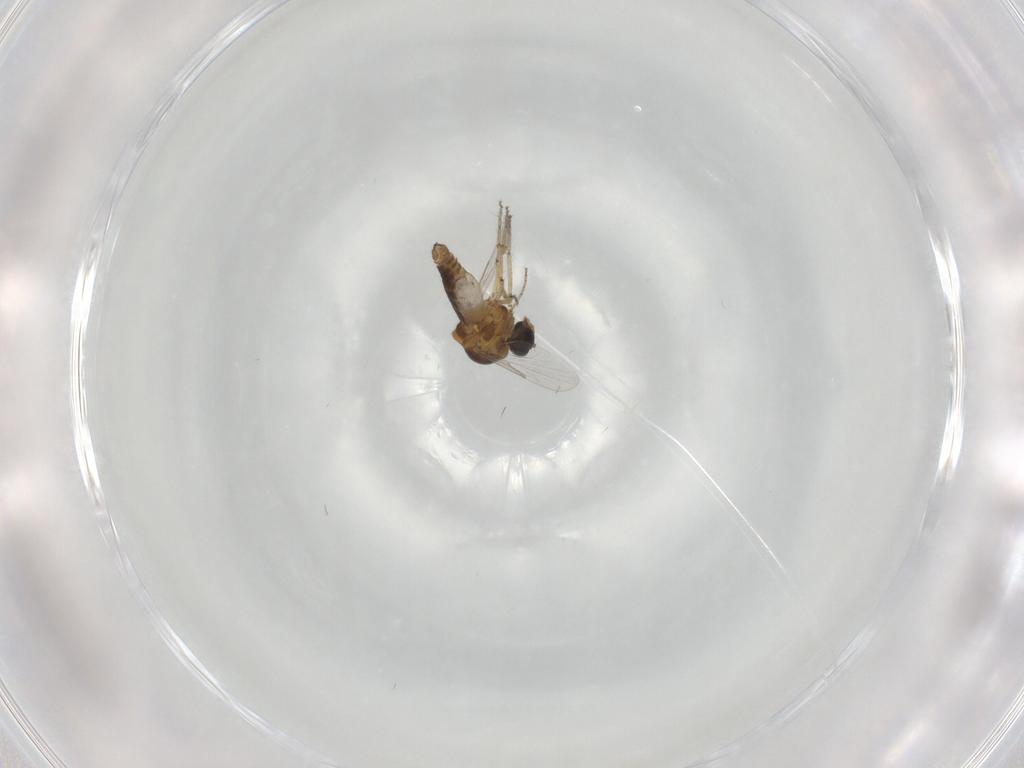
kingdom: Animalia
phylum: Arthropoda
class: Insecta
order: Diptera
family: Ceratopogonidae
